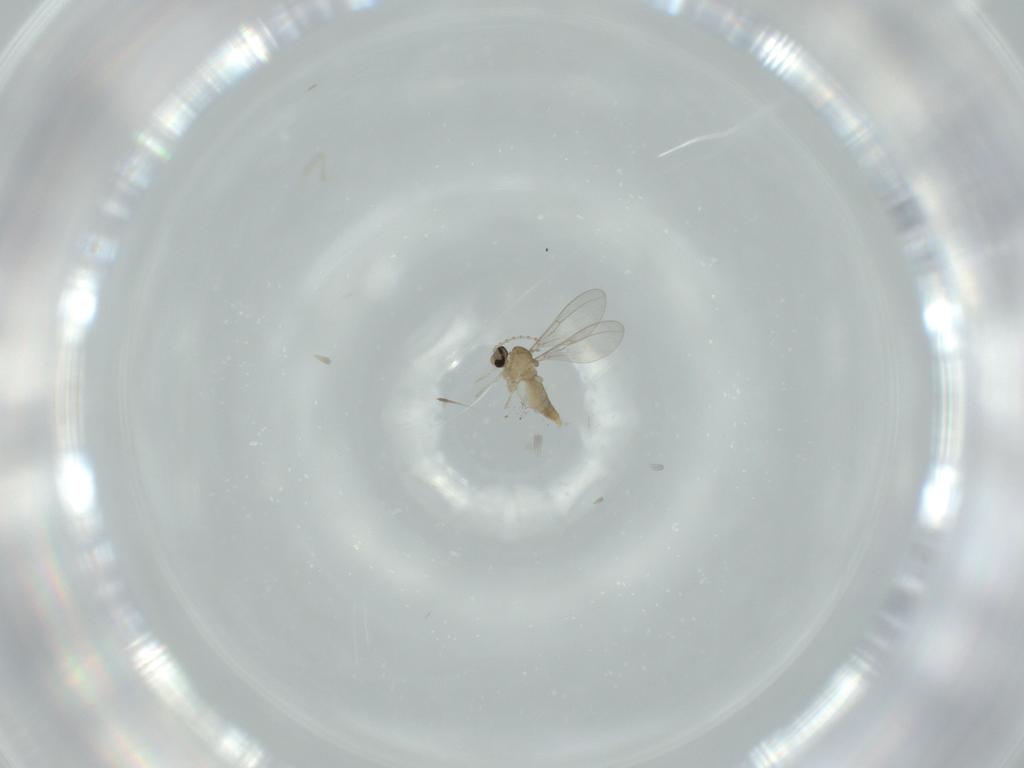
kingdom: Animalia
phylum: Arthropoda
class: Insecta
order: Diptera
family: Cecidomyiidae
